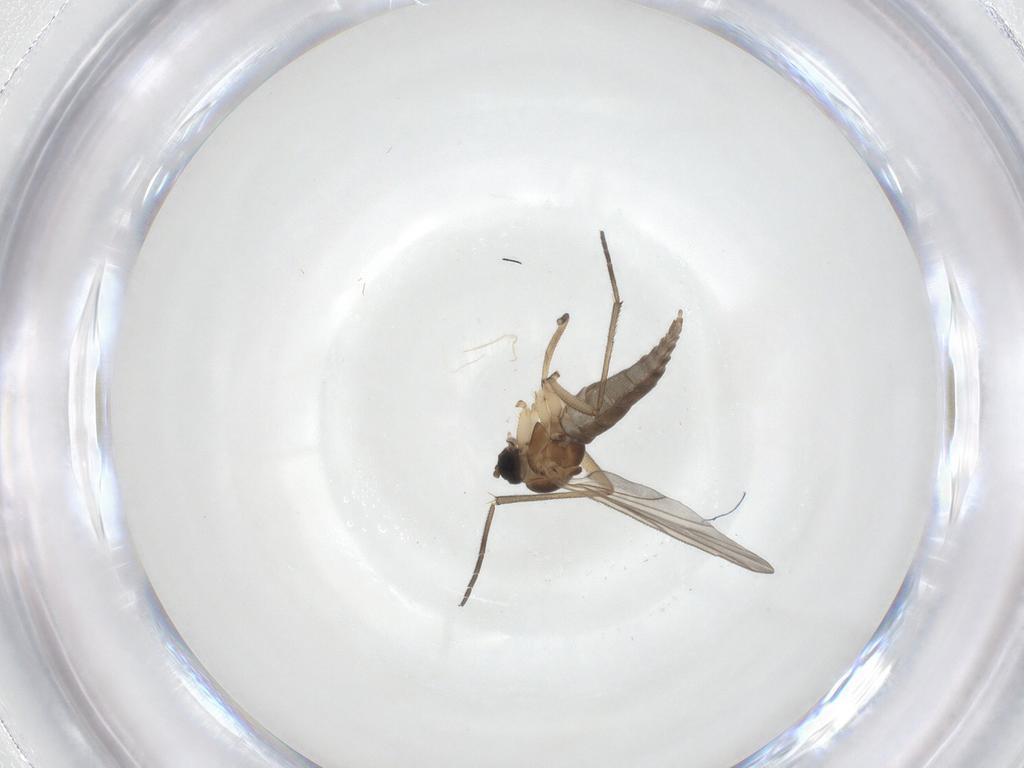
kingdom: Animalia
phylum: Arthropoda
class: Insecta
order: Diptera
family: Sciaridae
